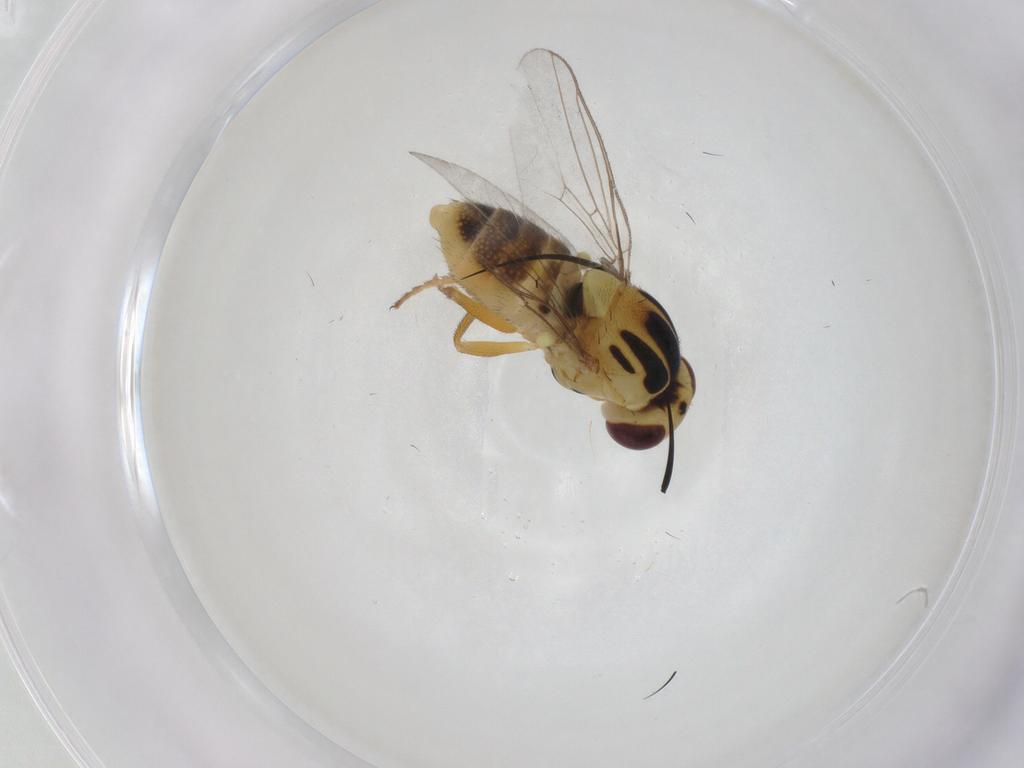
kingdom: Animalia
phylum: Arthropoda
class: Insecta
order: Diptera
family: Chloropidae
